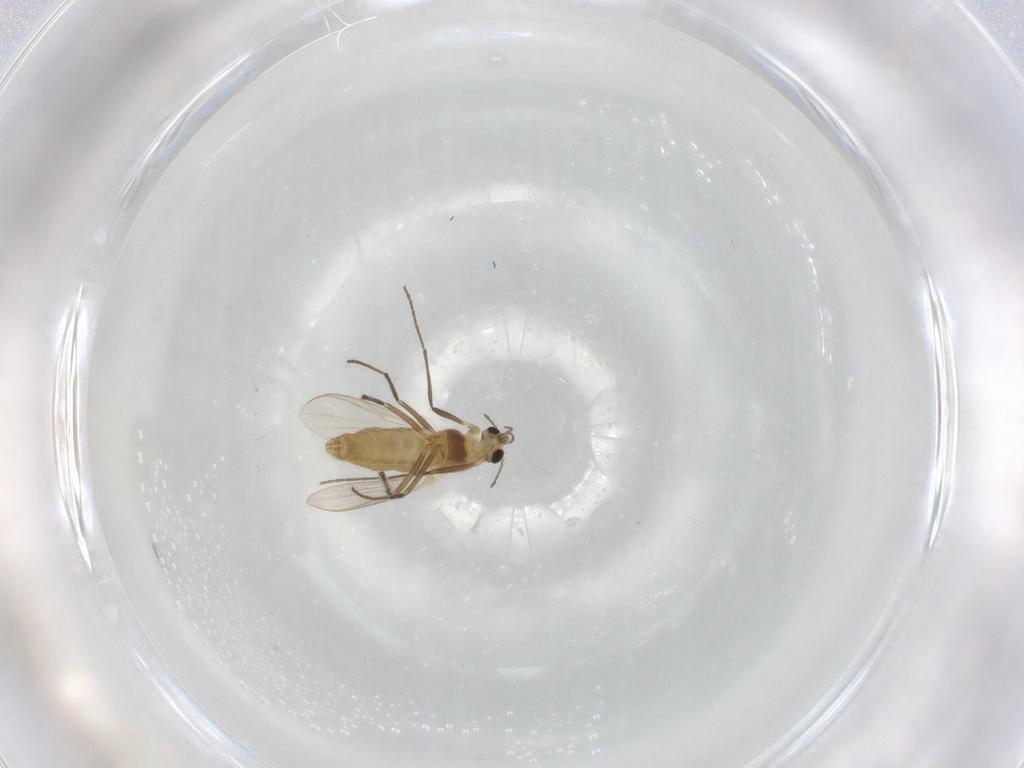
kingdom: Animalia
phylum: Arthropoda
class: Insecta
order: Diptera
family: Chironomidae
